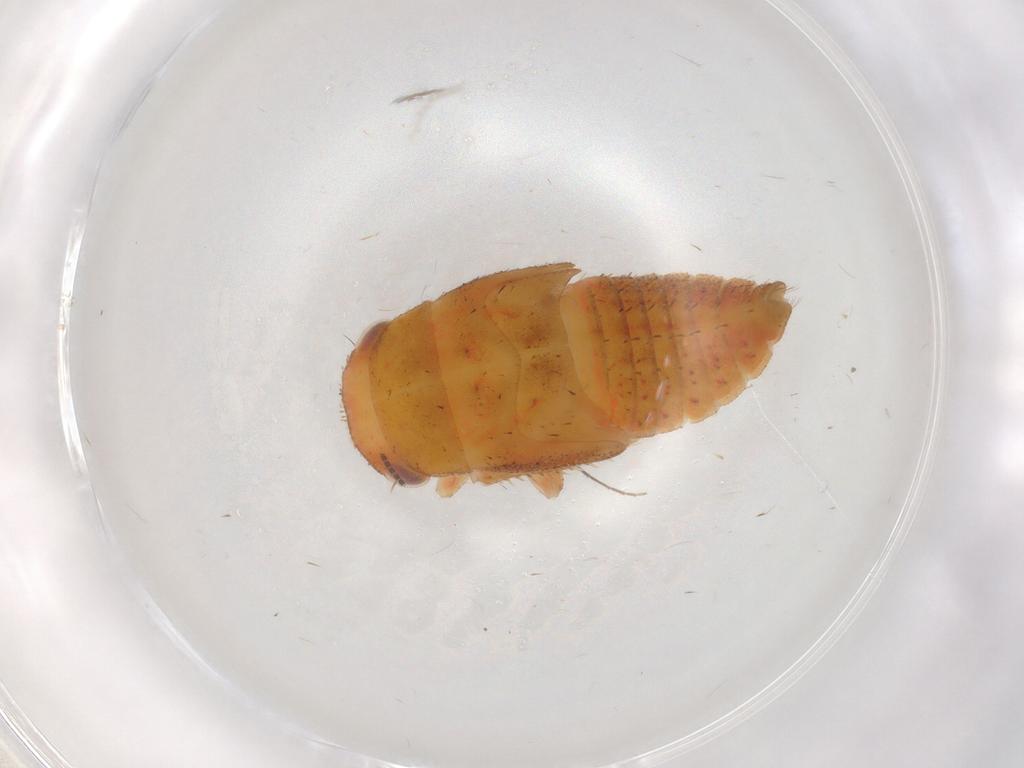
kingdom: Animalia
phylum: Arthropoda
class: Insecta
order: Hemiptera
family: Cicadellidae
